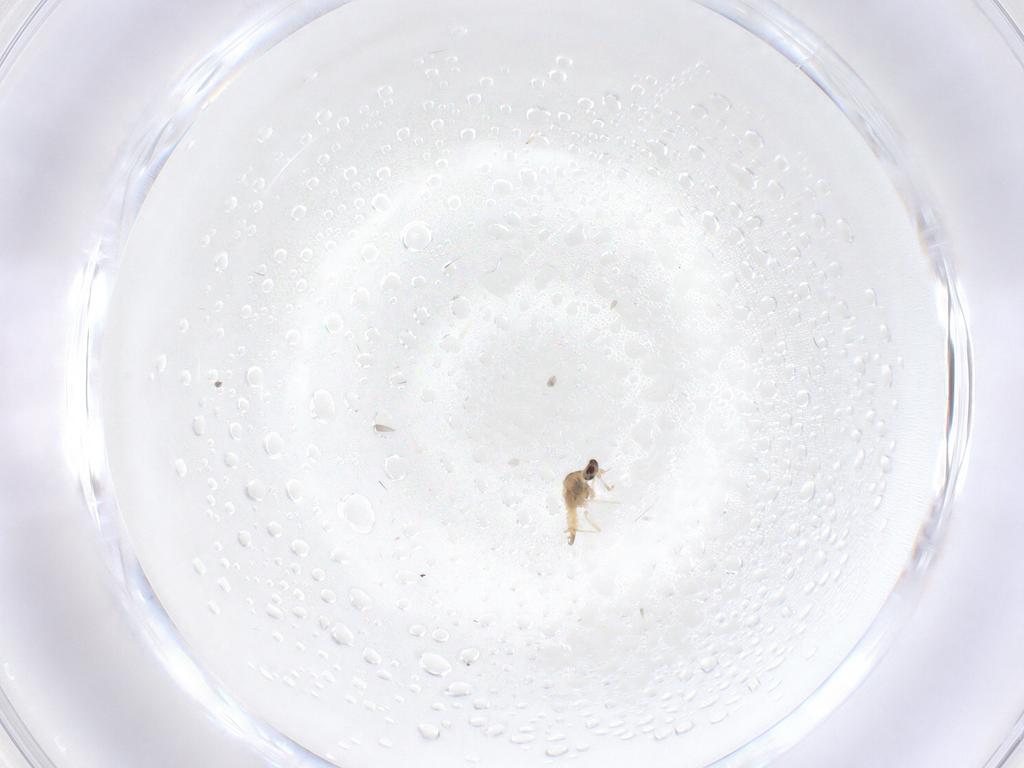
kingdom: Animalia
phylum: Arthropoda
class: Insecta
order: Diptera
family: Cecidomyiidae
